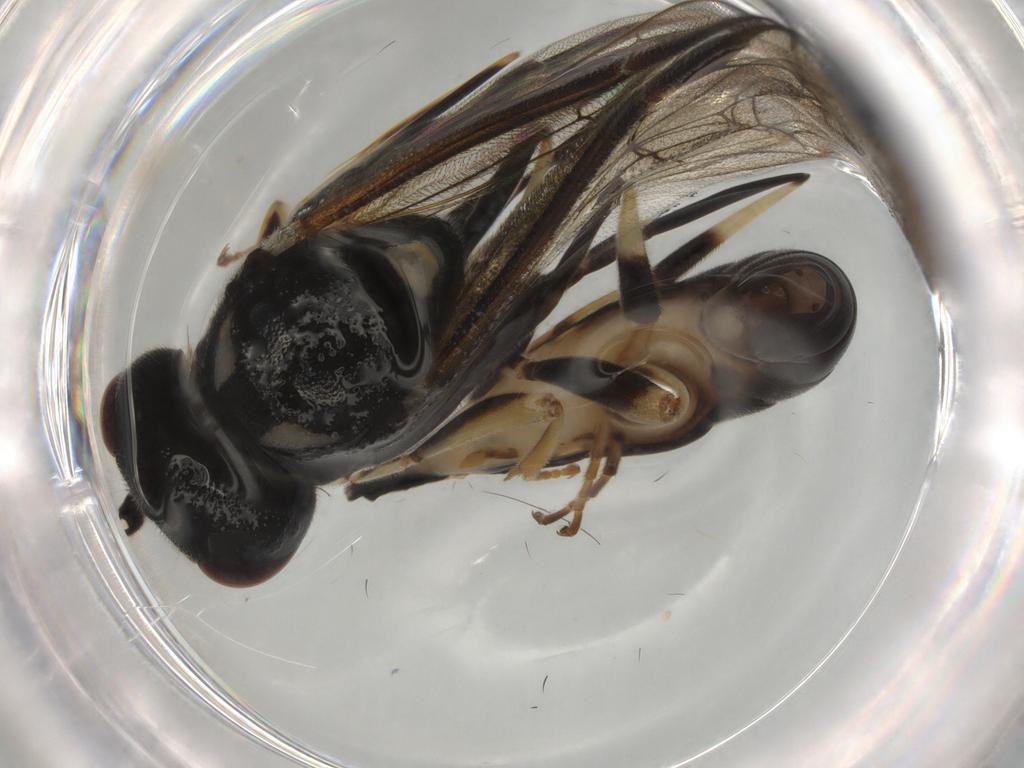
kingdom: Animalia
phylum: Arthropoda
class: Insecta
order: Hymenoptera
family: Ichneumonidae
